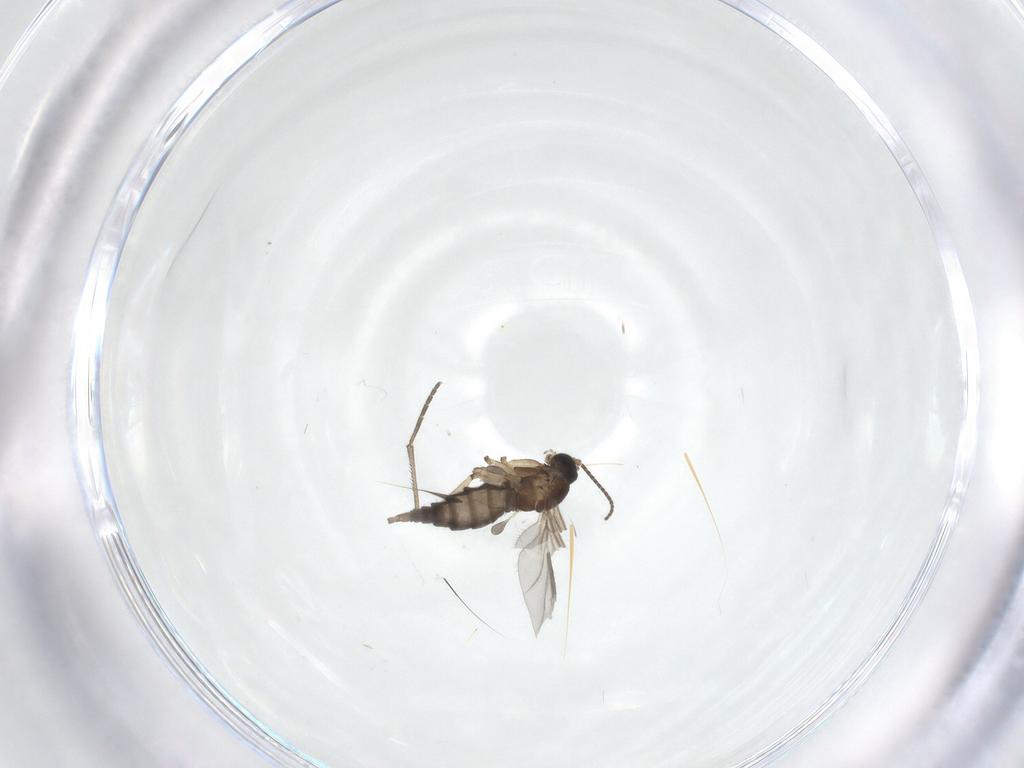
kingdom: Animalia
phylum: Arthropoda
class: Insecta
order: Diptera
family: Sciaridae
